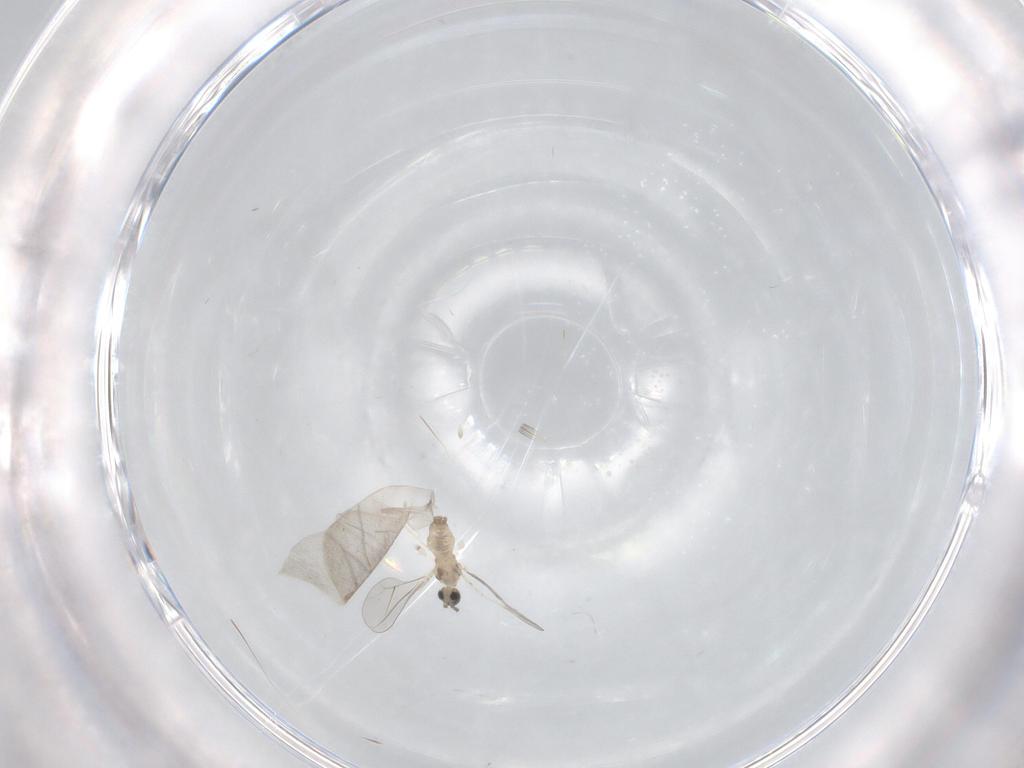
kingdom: Animalia
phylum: Arthropoda
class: Insecta
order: Diptera
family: Cecidomyiidae
